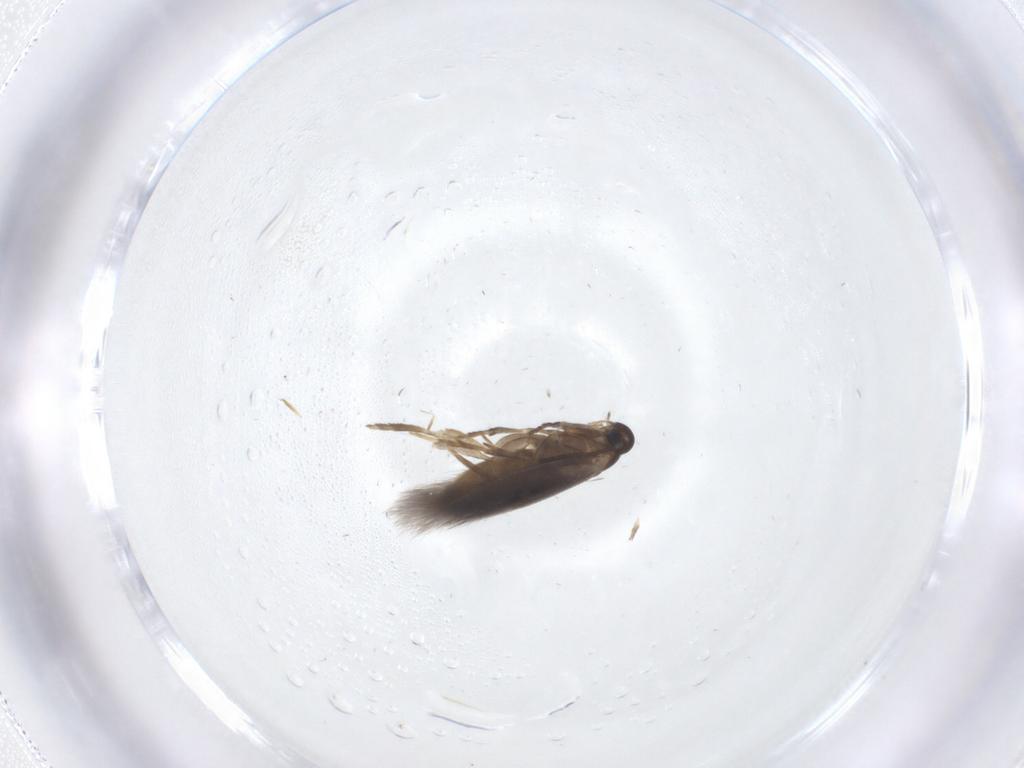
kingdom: Animalia
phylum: Arthropoda
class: Insecta
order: Lepidoptera
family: Heliozelidae
